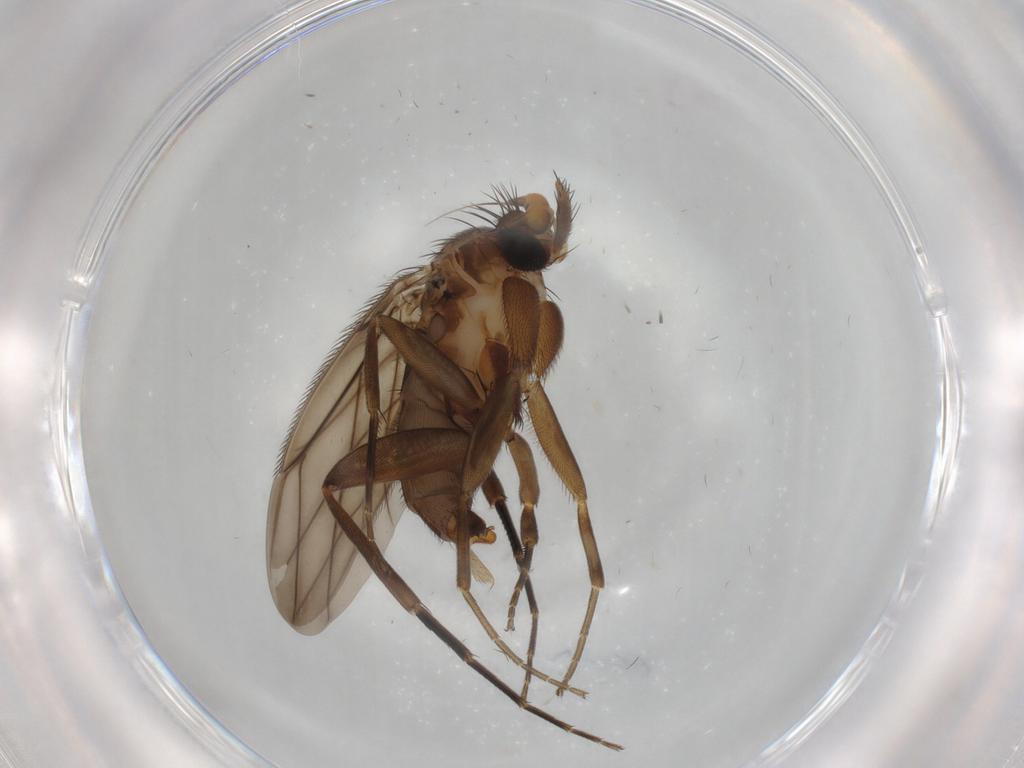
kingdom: Animalia
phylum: Arthropoda
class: Insecta
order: Diptera
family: Phoridae
